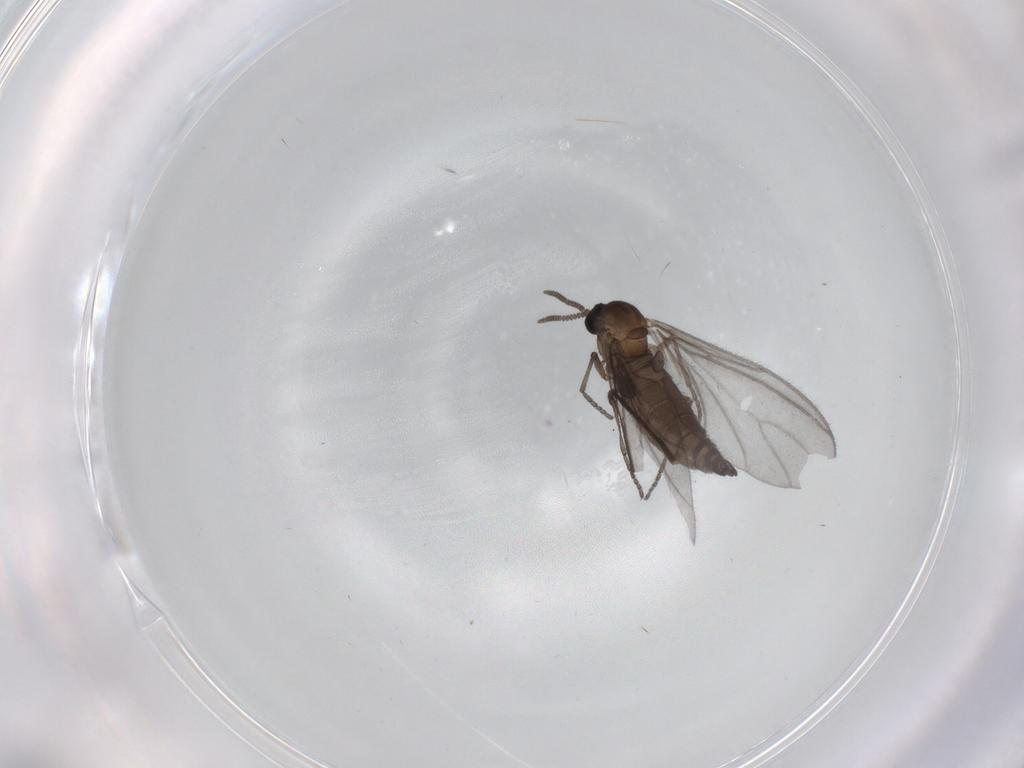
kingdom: Animalia
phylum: Arthropoda
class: Insecta
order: Diptera
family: Sciaridae
